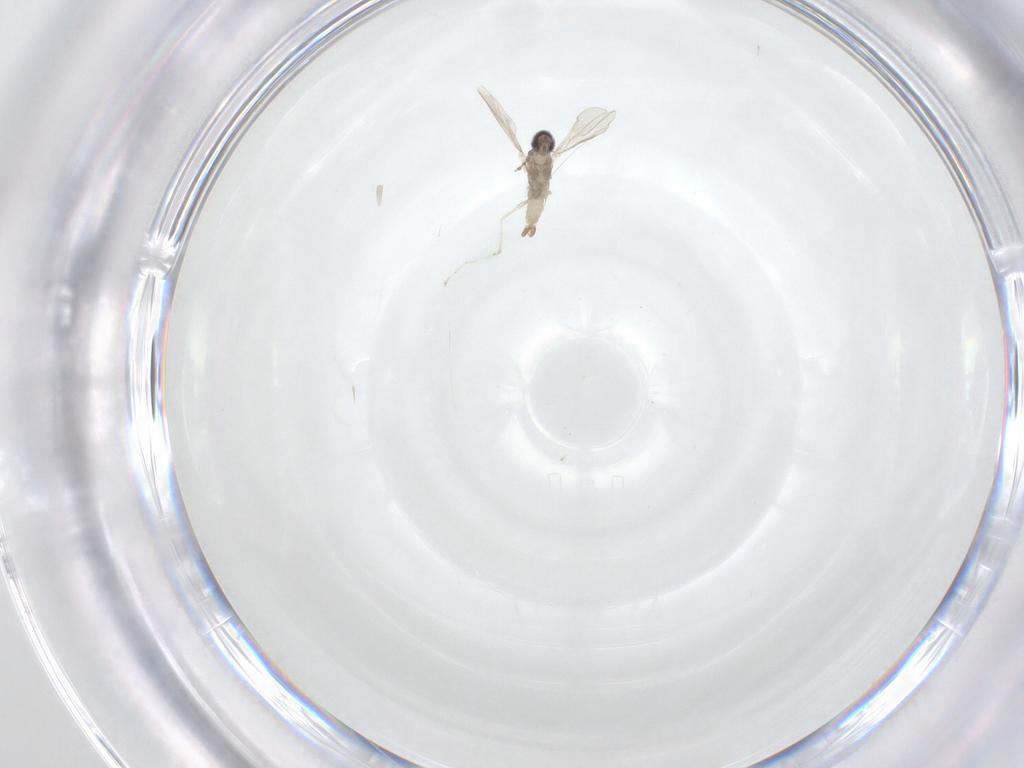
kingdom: Animalia
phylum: Arthropoda
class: Insecta
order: Diptera
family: Cecidomyiidae
